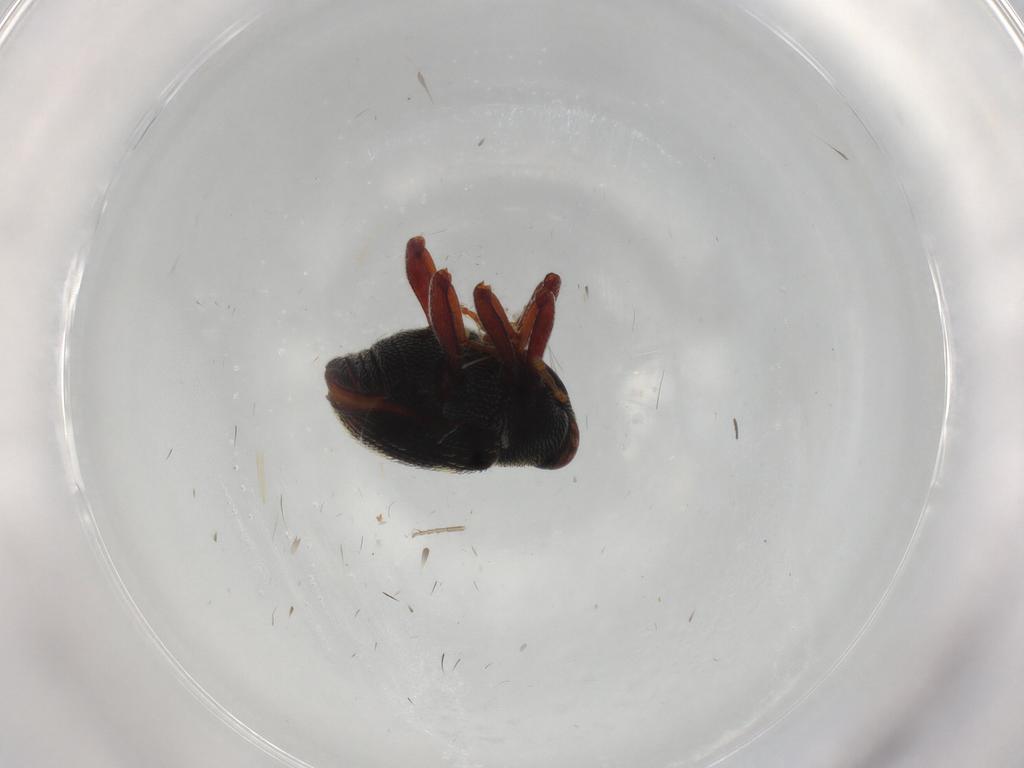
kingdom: Animalia
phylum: Arthropoda
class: Insecta
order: Coleoptera
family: Curculionidae
